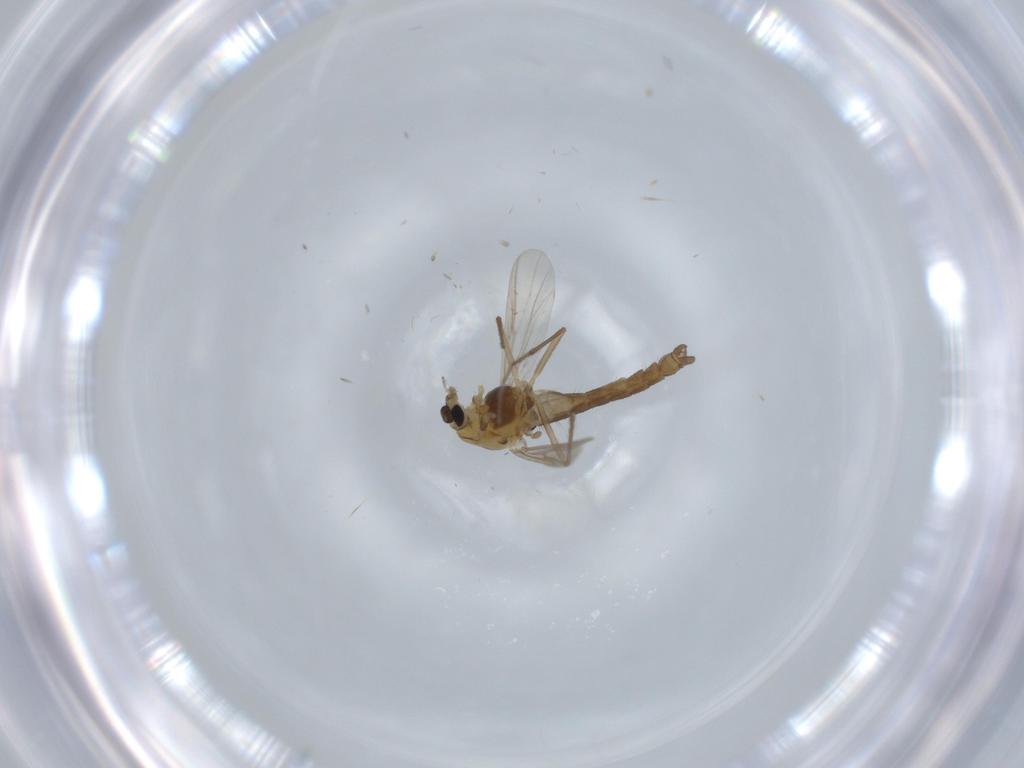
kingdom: Animalia
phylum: Arthropoda
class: Insecta
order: Diptera
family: Chironomidae
